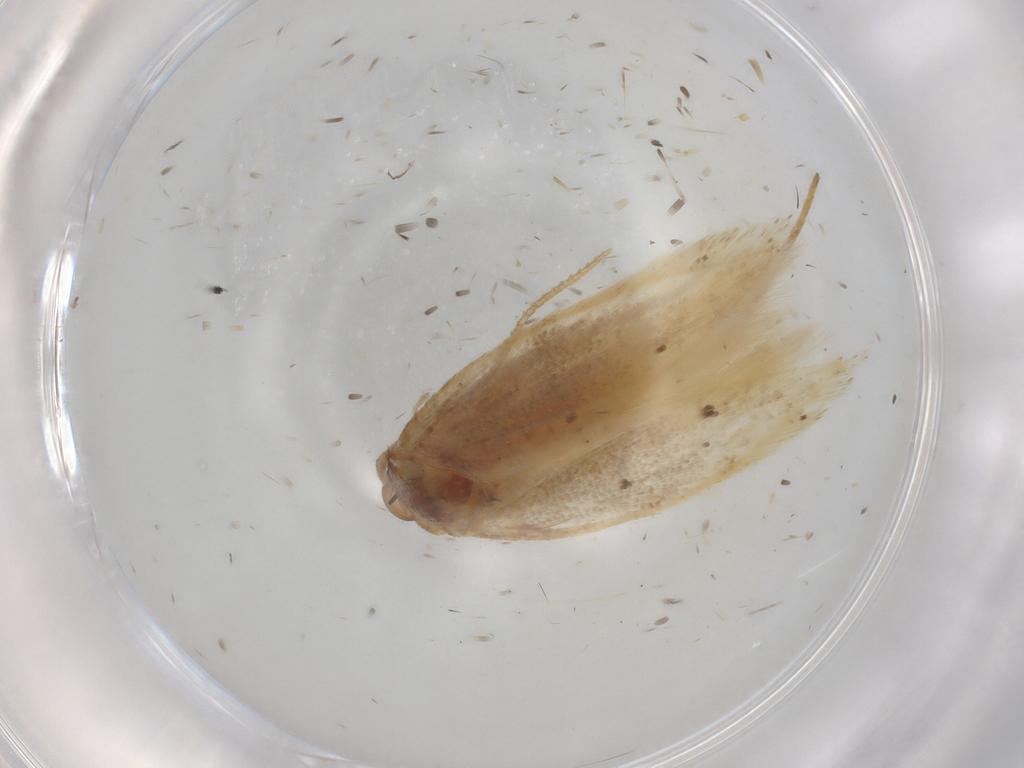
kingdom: Animalia
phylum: Arthropoda
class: Insecta
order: Lepidoptera
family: Gelechiidae
